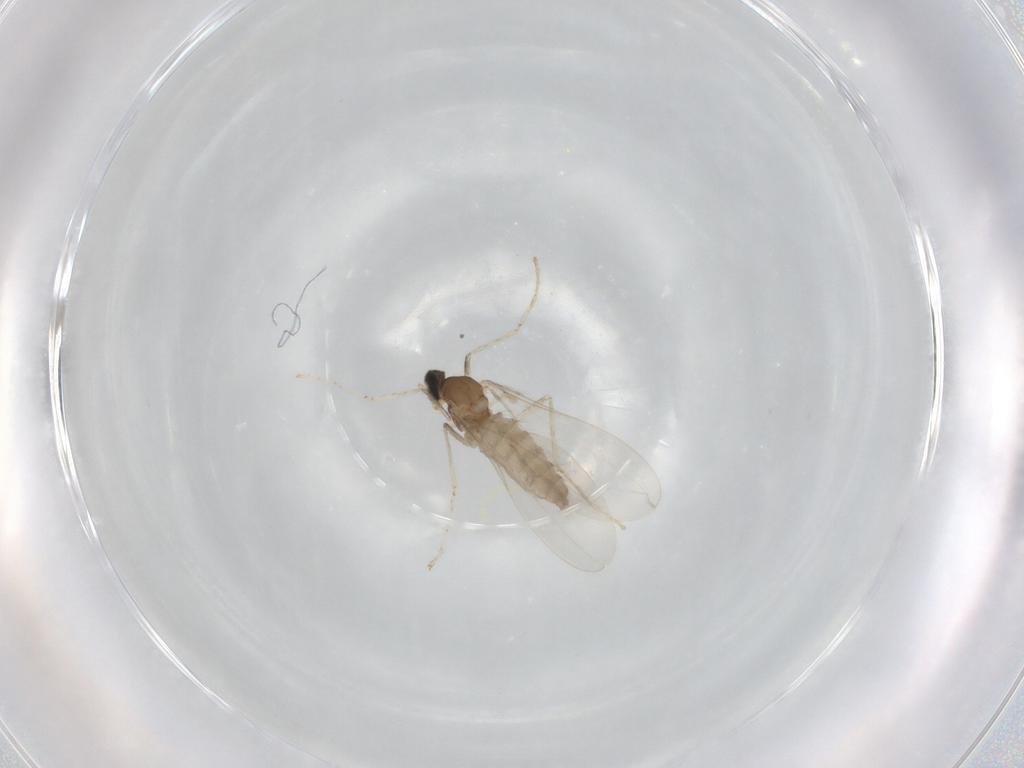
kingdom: Animalia
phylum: Arthropoda
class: Insecta
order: Diptera
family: Cecidomyiidae
